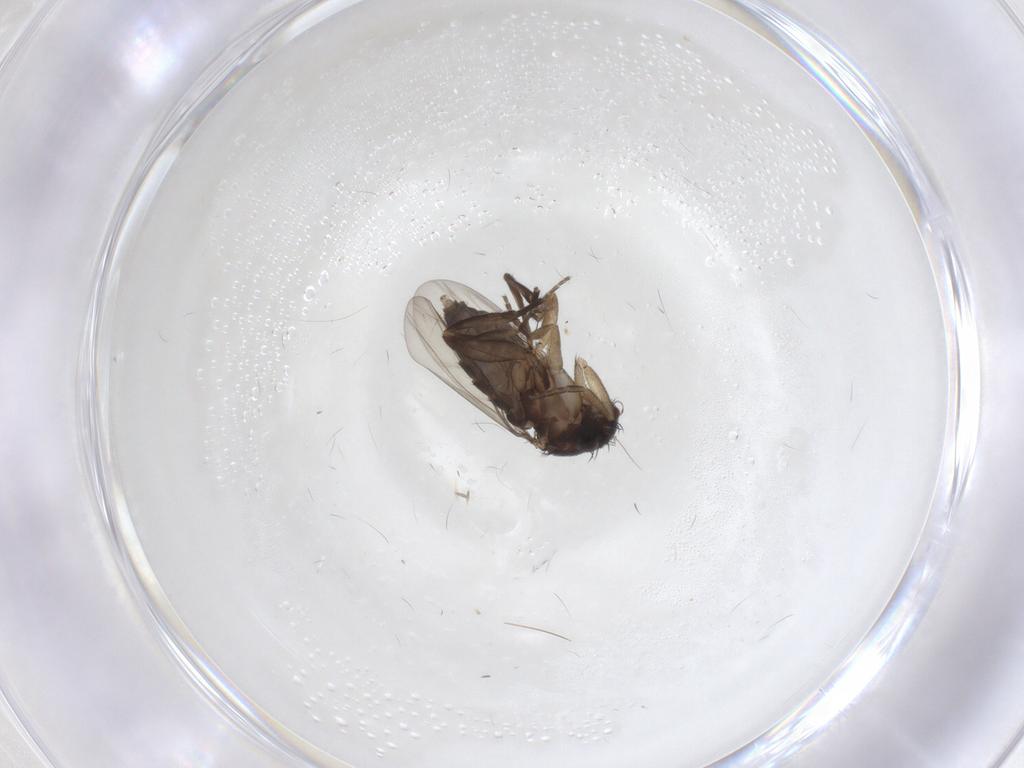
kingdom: Animalia
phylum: Arthropoda
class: Insecta
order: Diptera
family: Phoridae
